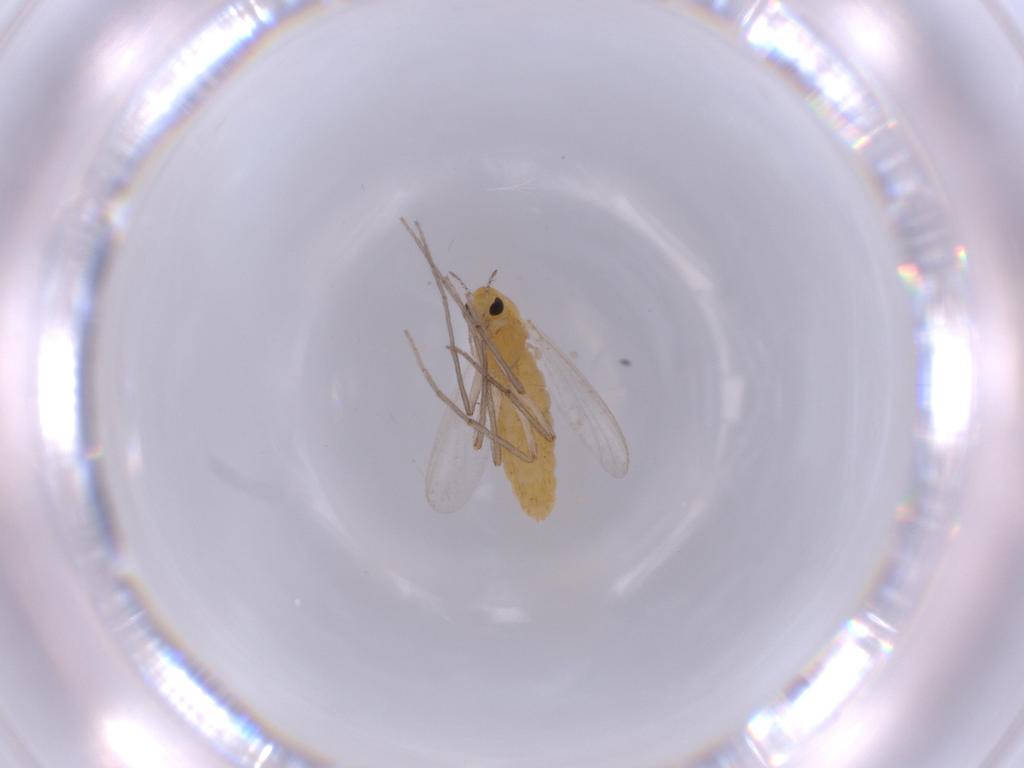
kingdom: Animalia
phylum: Arthropoda
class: Insecta
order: Diptera
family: Chironomidae
